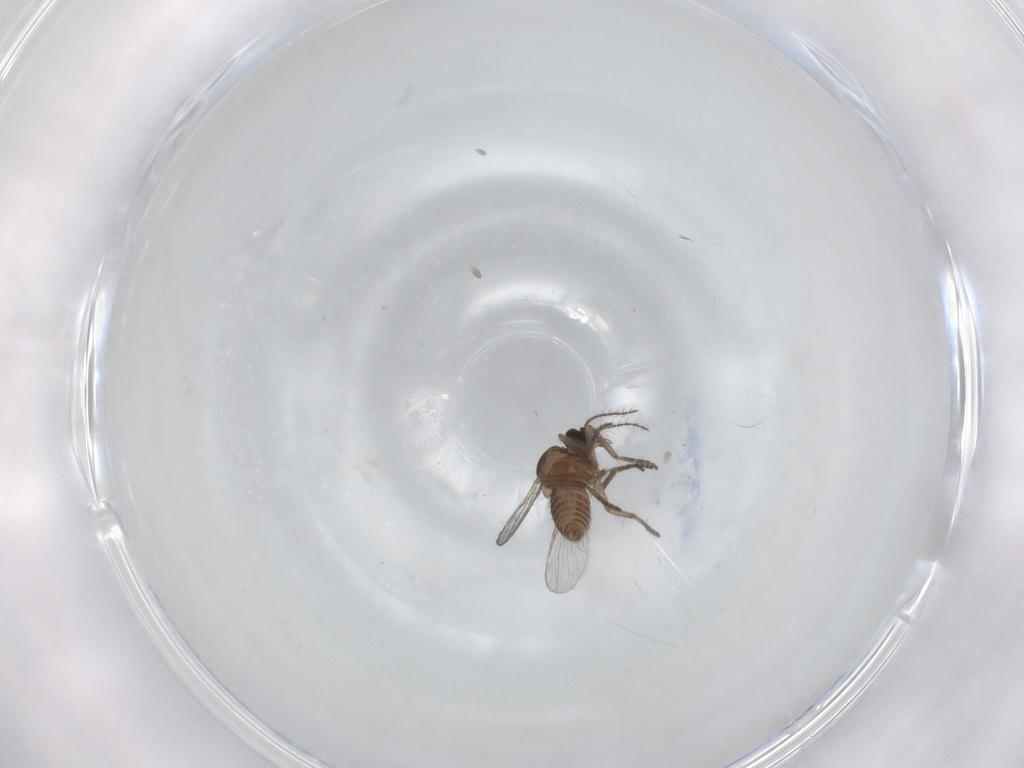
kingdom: Animalia
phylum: Arthropoda
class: Insecta
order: Diptera
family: Ceratopogonidae
